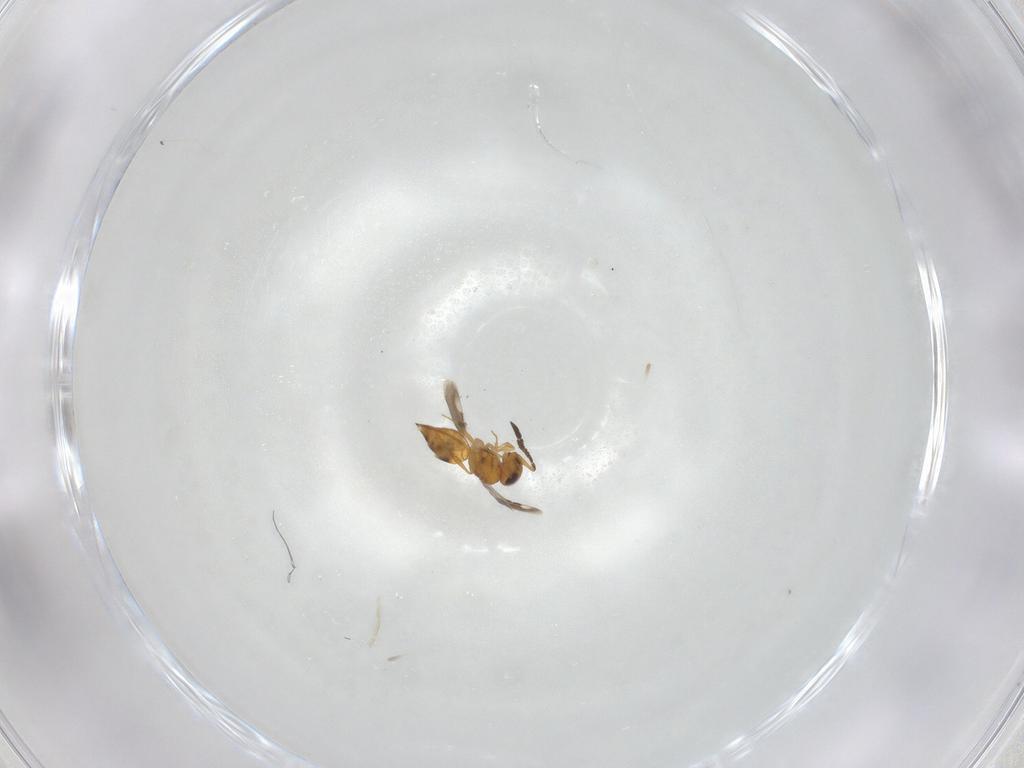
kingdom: Animalia
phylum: Arthropoda
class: Insecta
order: Hymenoptera
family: Ceraphronidae
